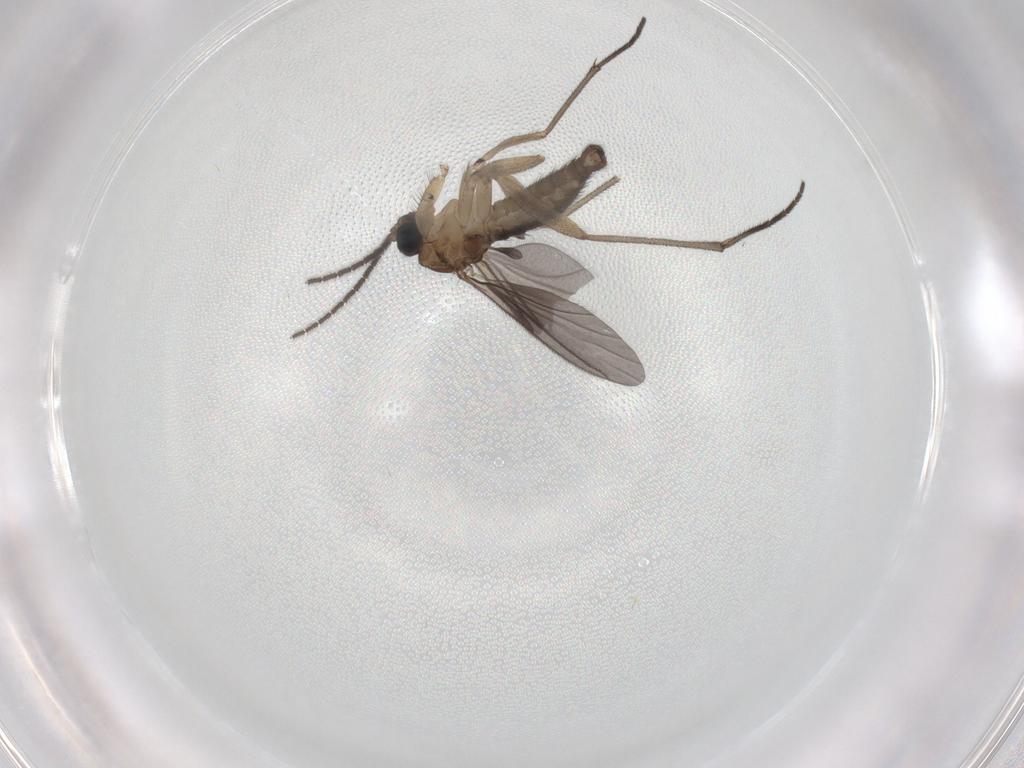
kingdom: Animalia
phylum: Arthropoda
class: Insecta
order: Diptera
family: Sciaridae
